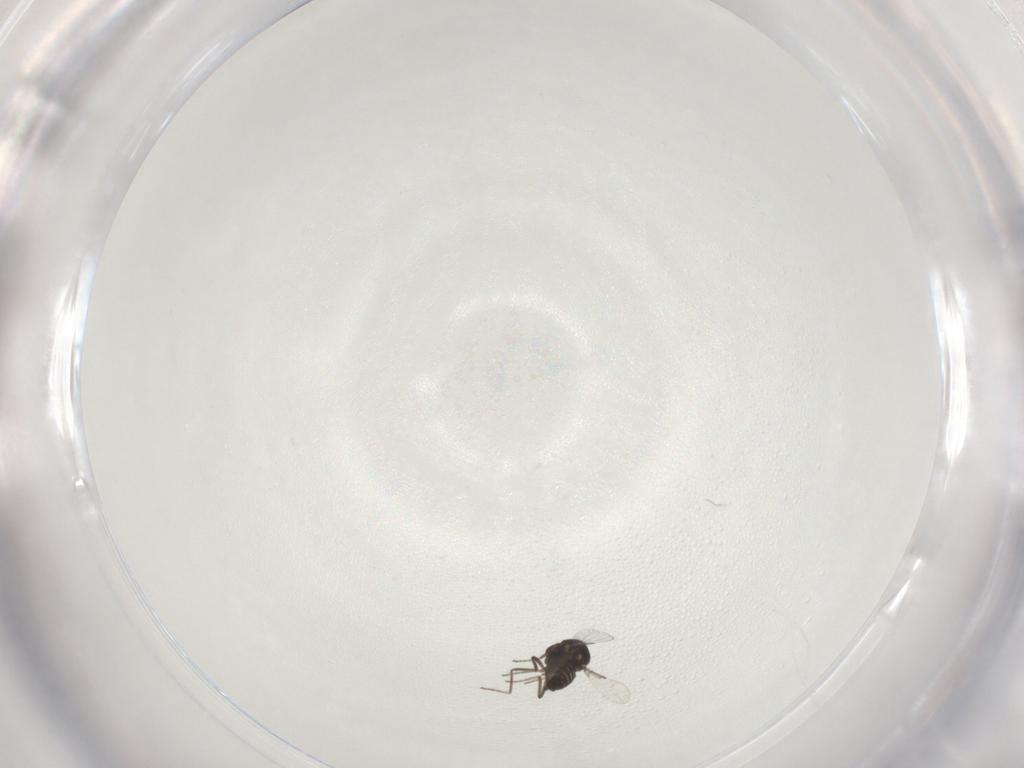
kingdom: Animalia
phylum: Arthropoda
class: Insecta
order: Diptera
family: Ceratopogonidae
